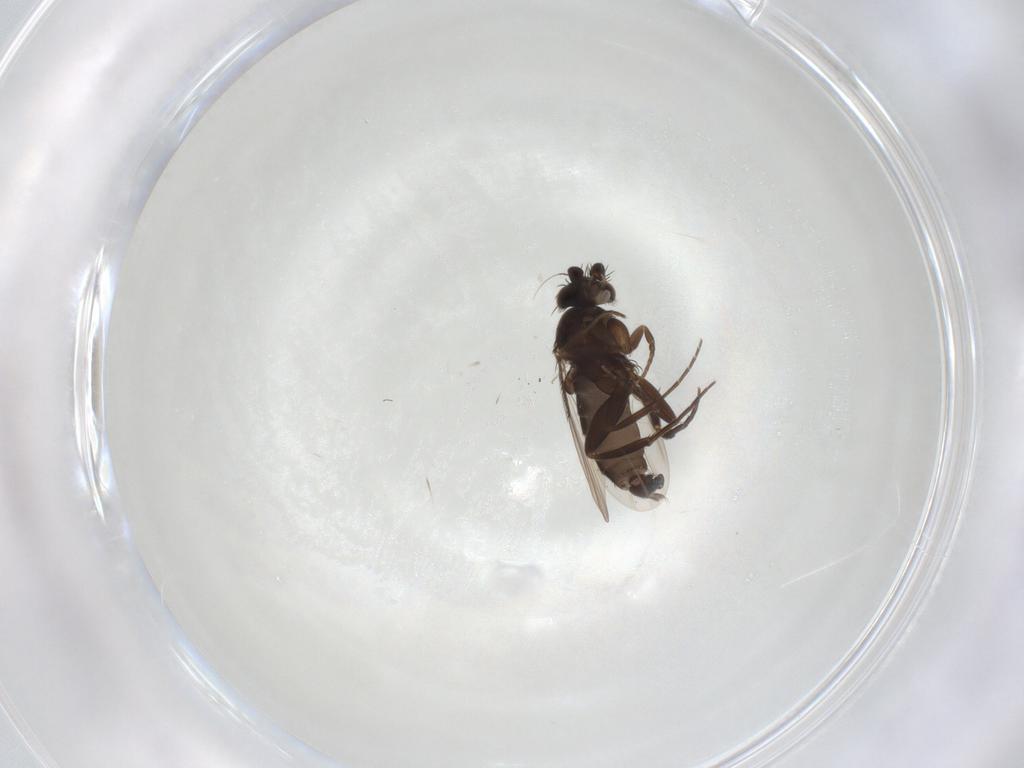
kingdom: Animalia
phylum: Arthropoda
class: Insecta
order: Diptera
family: Phoridae
